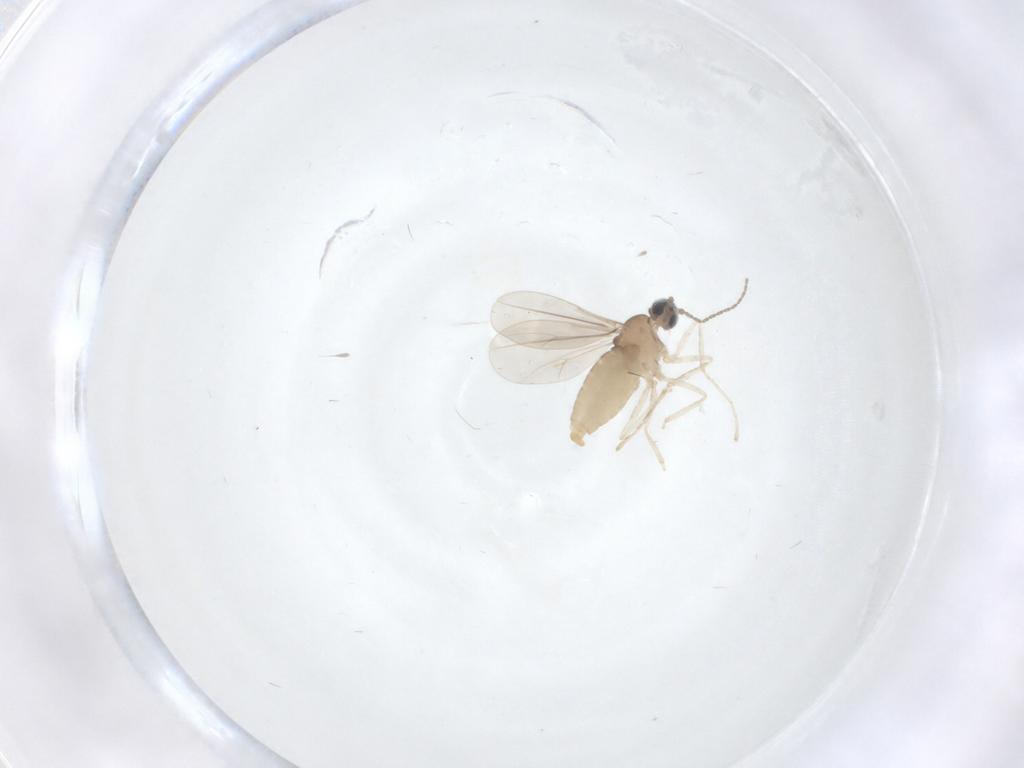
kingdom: Animalia
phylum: Arthropoda
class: Insecta
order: Diptera
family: Cecidomyiidae
